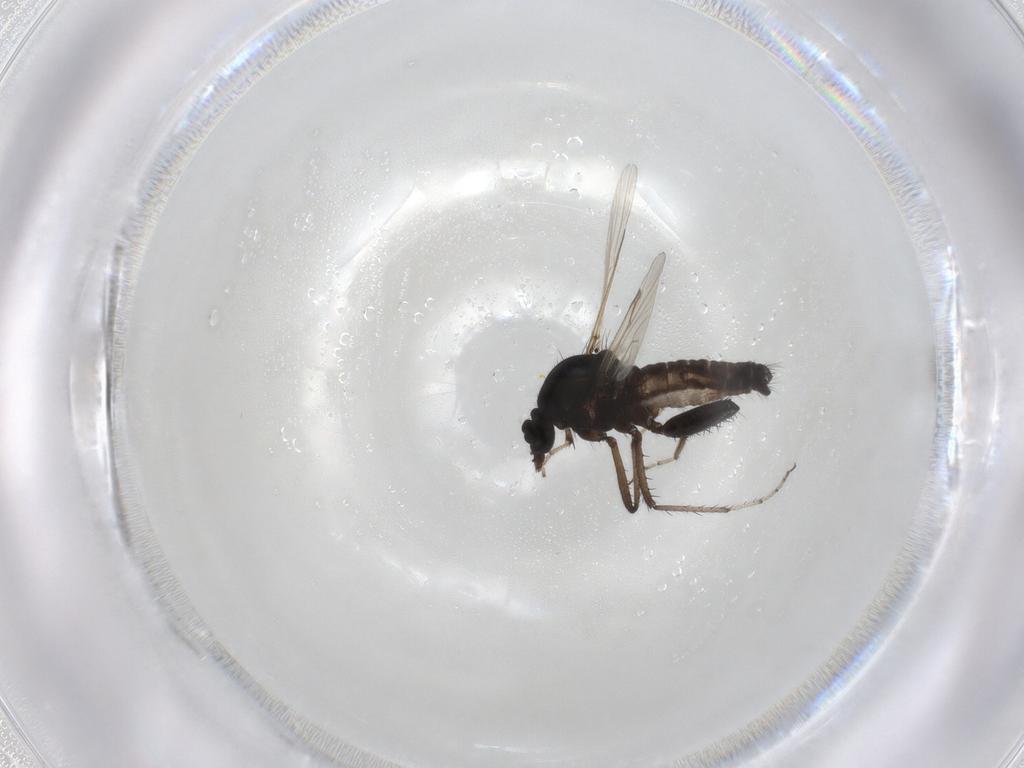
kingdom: Animalia
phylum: Arthropoda
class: Insecta
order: Diptera
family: Ceratopogonidae
